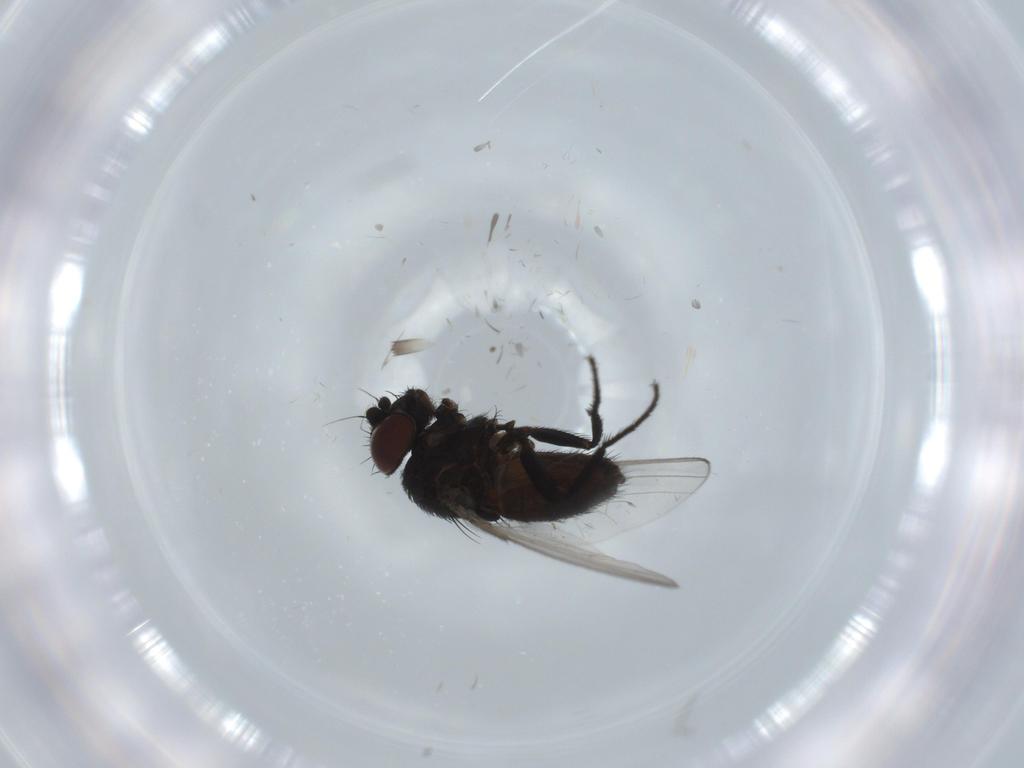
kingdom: Animalia
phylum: Arthropoda
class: Insecta
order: Diptera
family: Milichiidae
